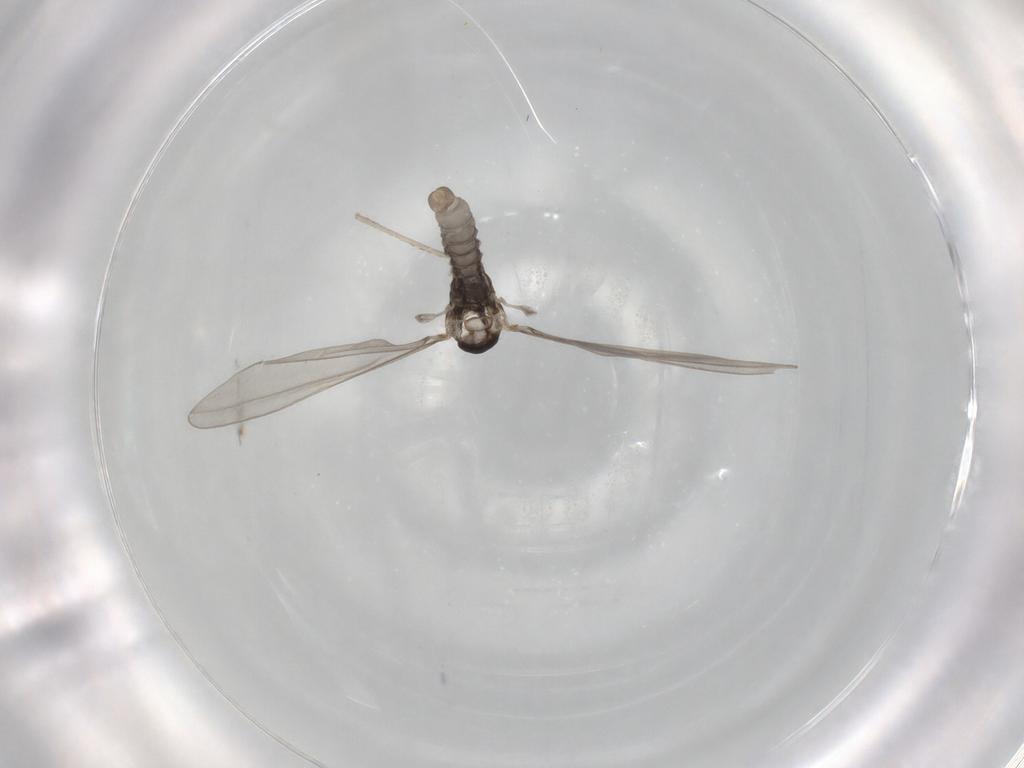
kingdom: Animalia
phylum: Arthropoda
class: Insecta
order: Diptera
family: Cecidomyiidae
